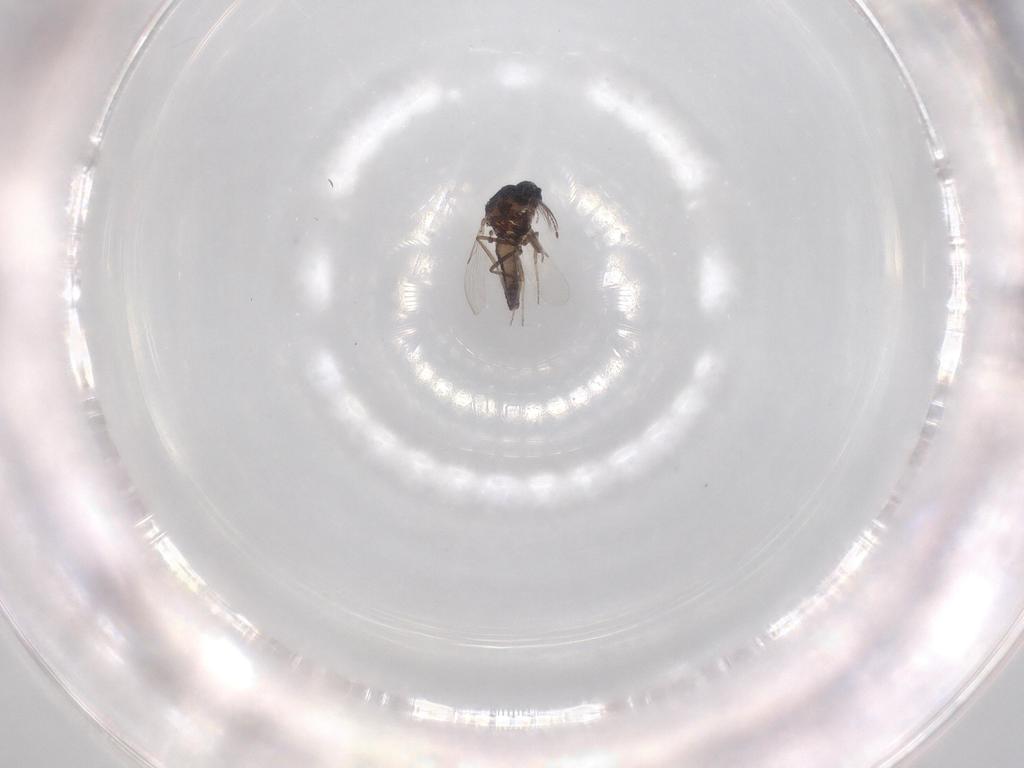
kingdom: Animalia
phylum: Arthropoda
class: Insecta
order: Diptera
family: Ceratopogonidae
